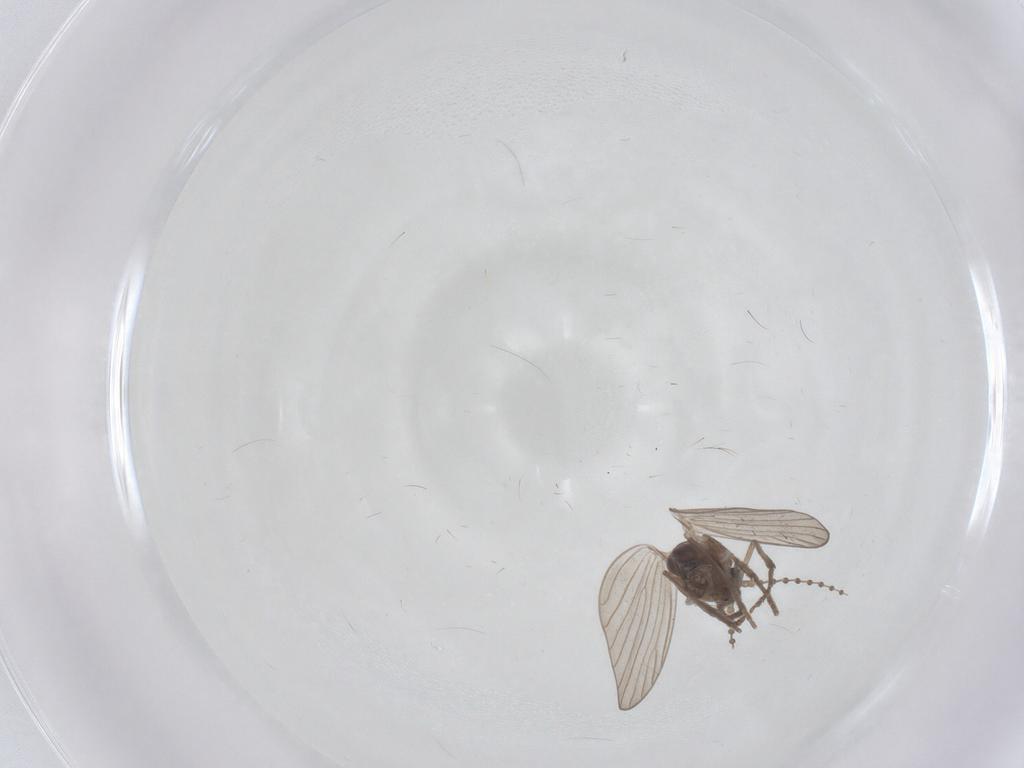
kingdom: Animalia
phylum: Arthropoda
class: Insecta
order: Diptera
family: Psychodidae
